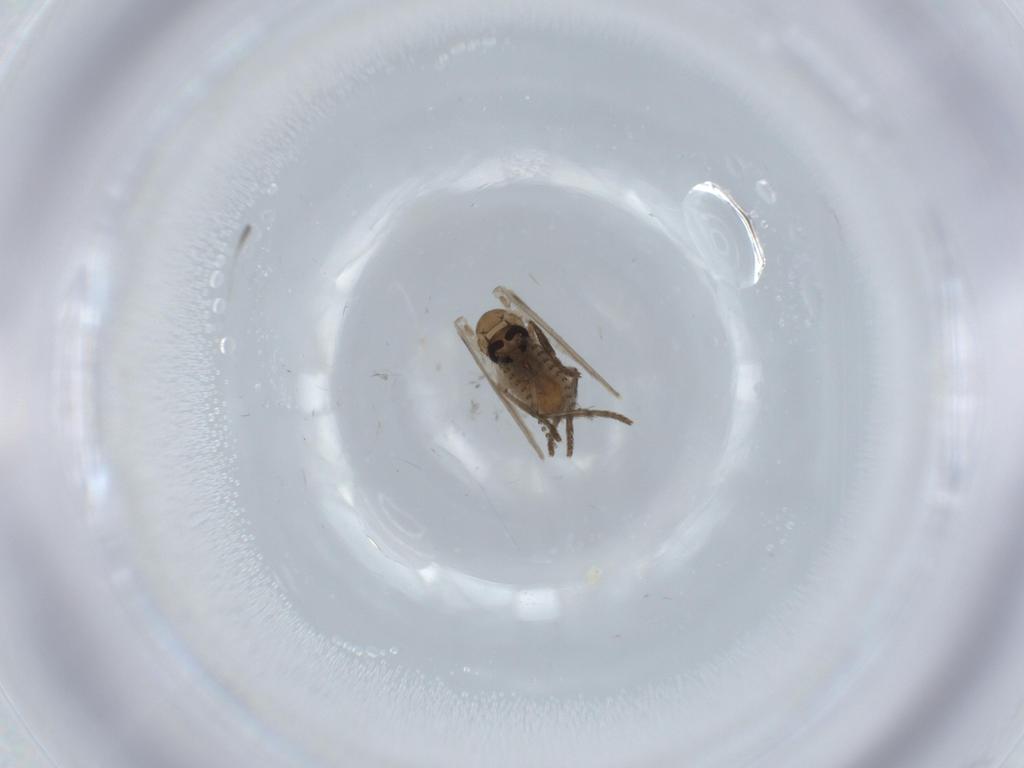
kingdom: Animalia
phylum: Arthropoda
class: Insecta
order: Diptera
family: Psychodidae
